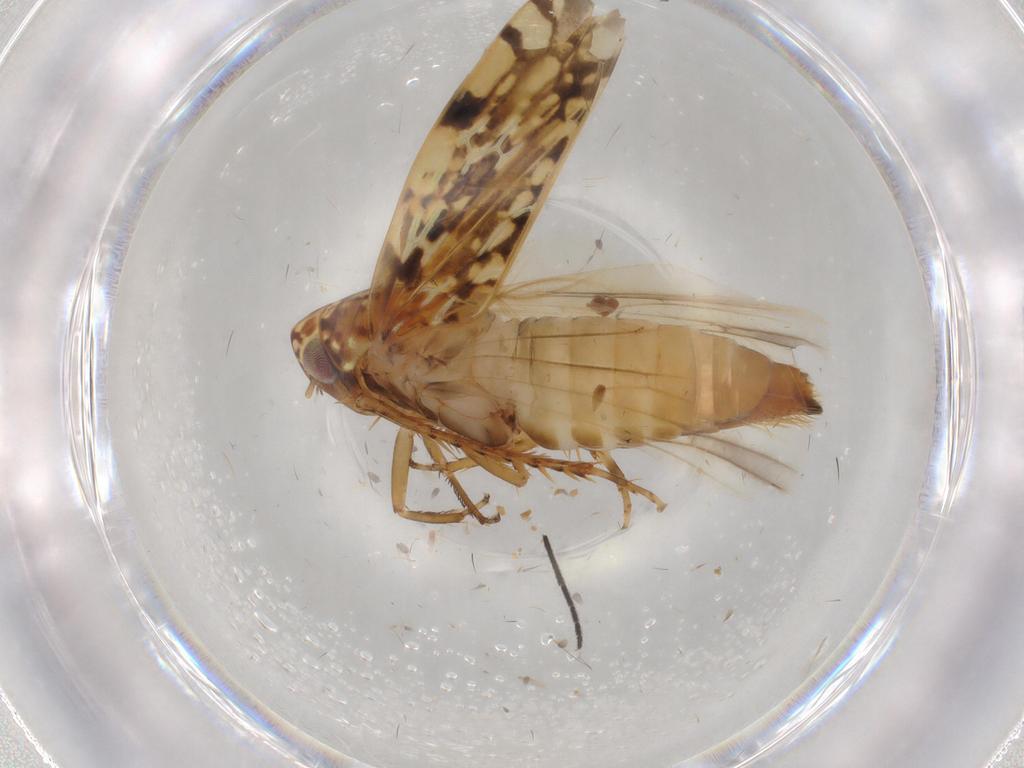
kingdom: Animalia
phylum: Arthropoda
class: Insecta
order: Hemiptera
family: Cicadellidae
